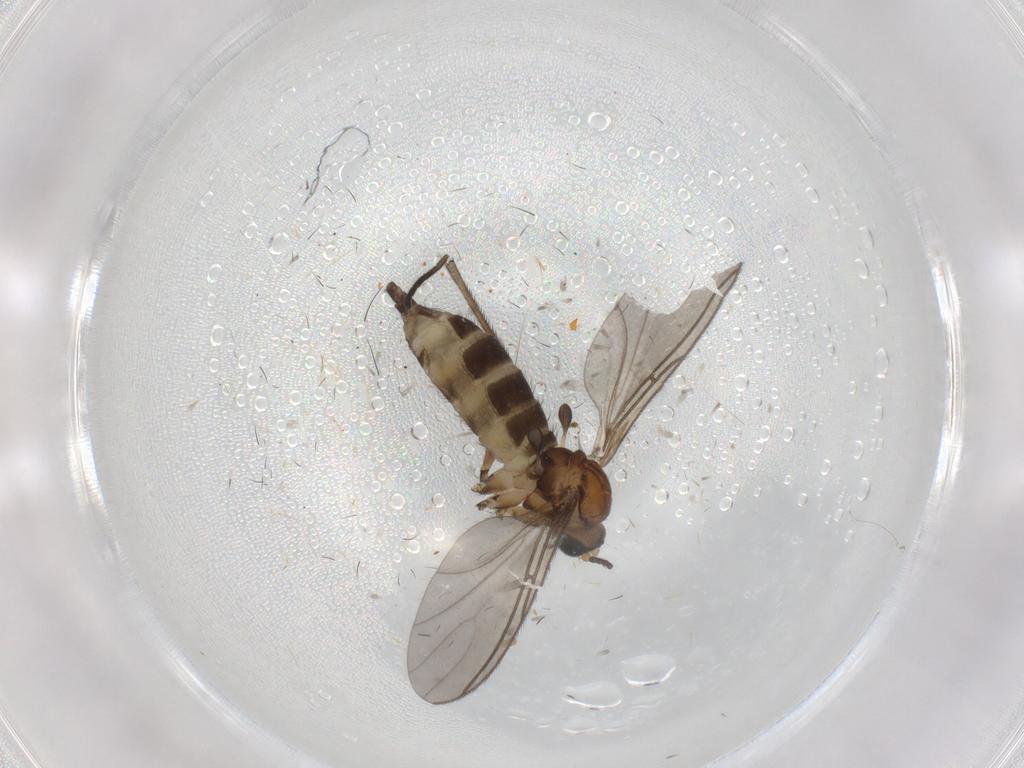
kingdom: Animalia
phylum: Arthropoda
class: Insecta
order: Diptera
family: Sciaridae
